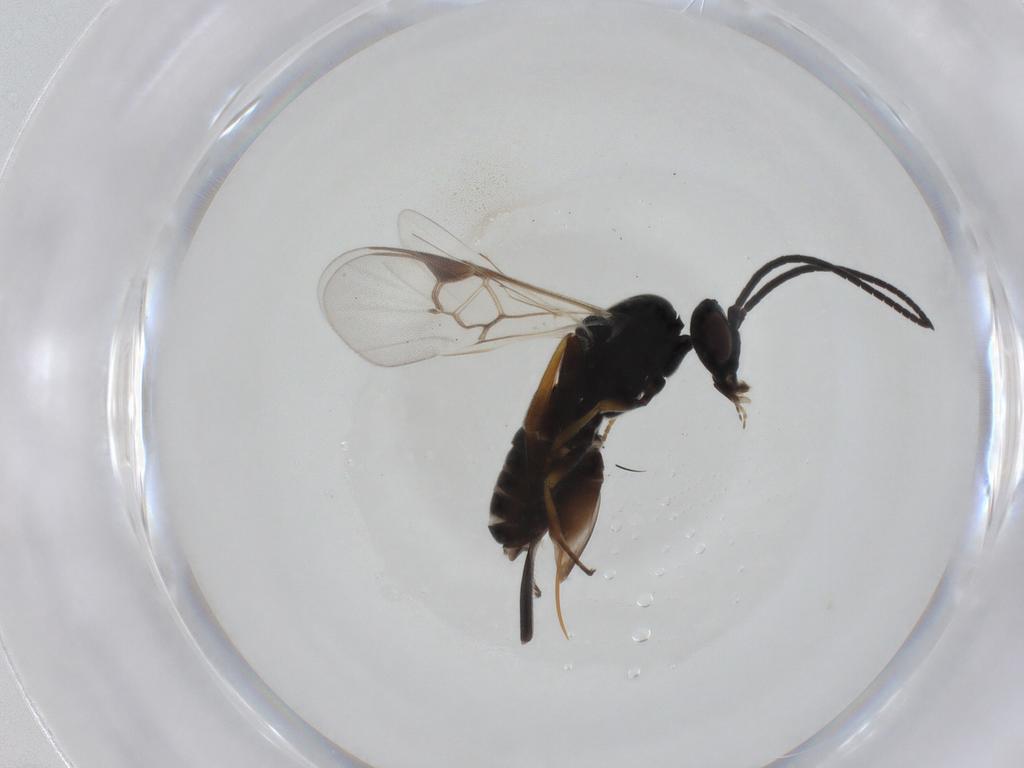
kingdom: Animalia
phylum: Arthropoda
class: Insecta
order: Hymenoptera
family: Braconidae
